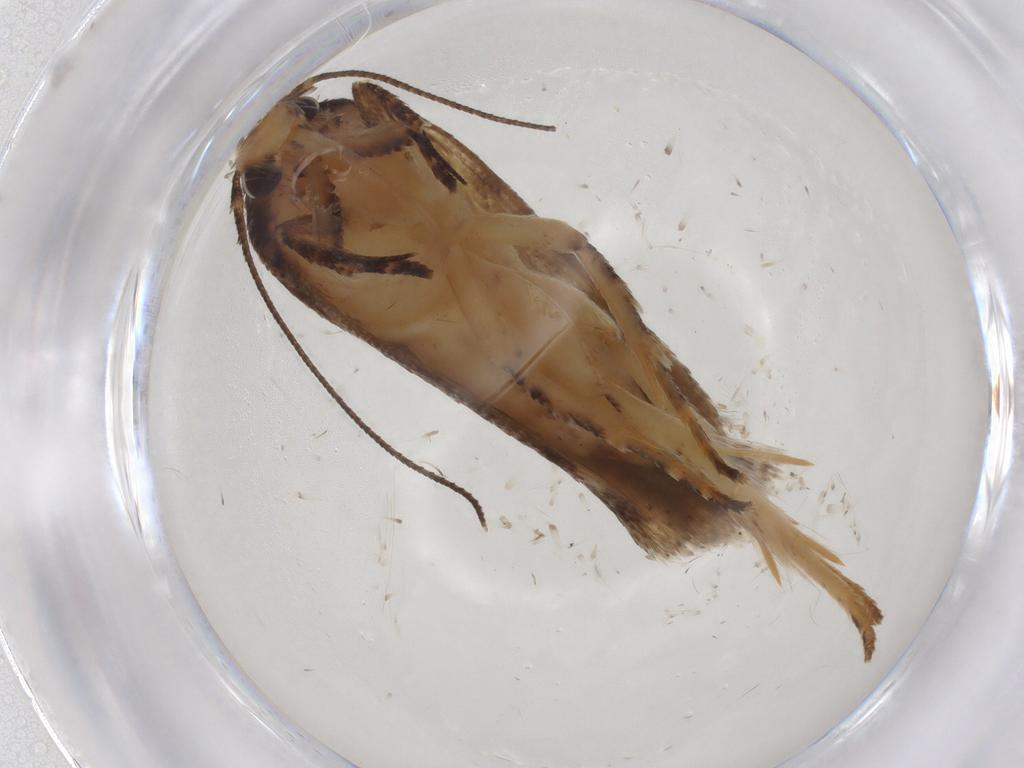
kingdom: Animalia
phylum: Arthropoda
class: Insecta
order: Lepidoptera
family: Gelechiidae
